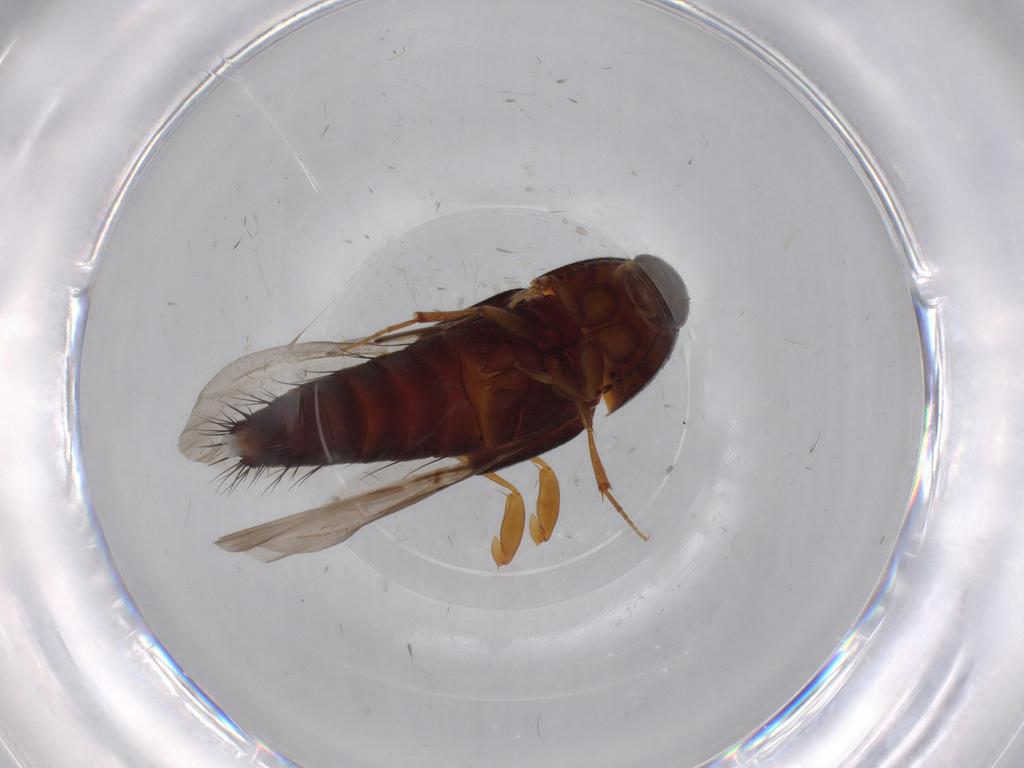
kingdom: Animalia
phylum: Arthropoda
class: Insecta
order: Coleoptera
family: Staphylinidae
